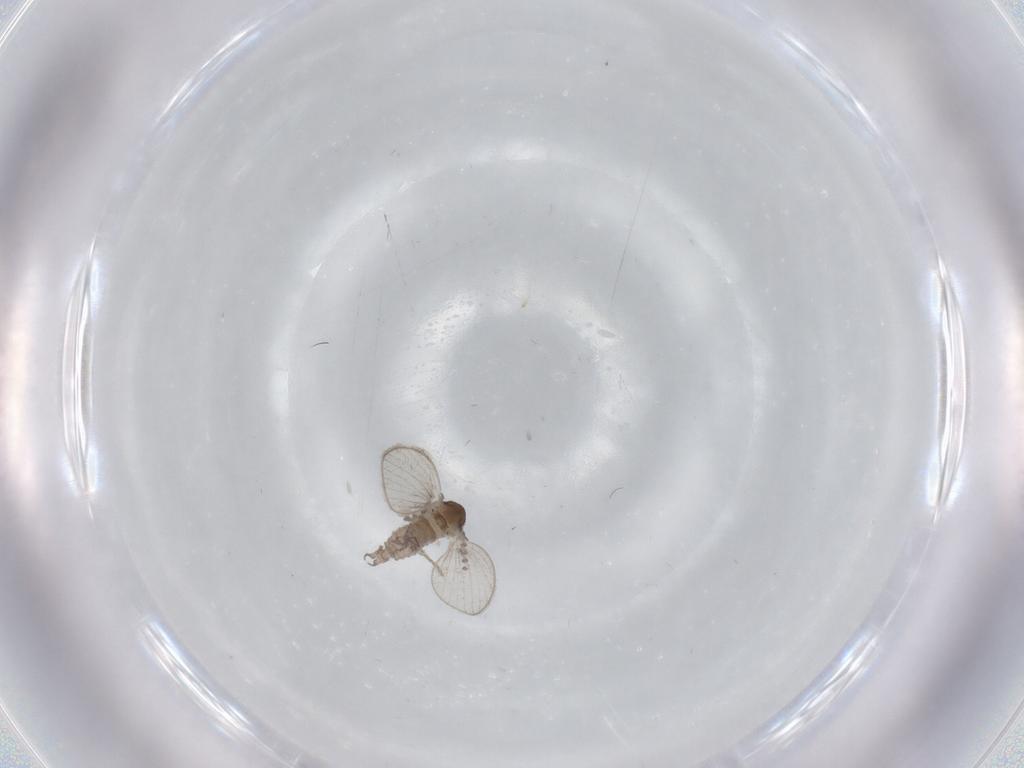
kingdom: Animalia
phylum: Arthropoda
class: Insecta
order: Diptera
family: Psychodidae
